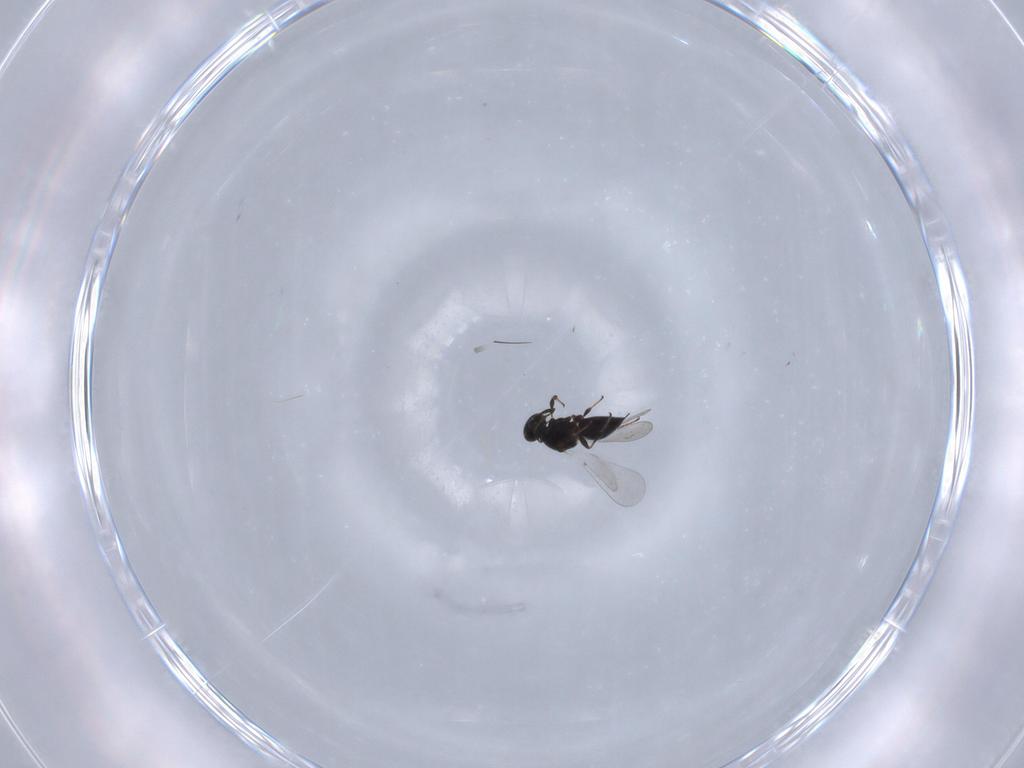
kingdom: Animalia
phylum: Arthropoda
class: Insecta
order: Hymenoptera
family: Platygastridae
